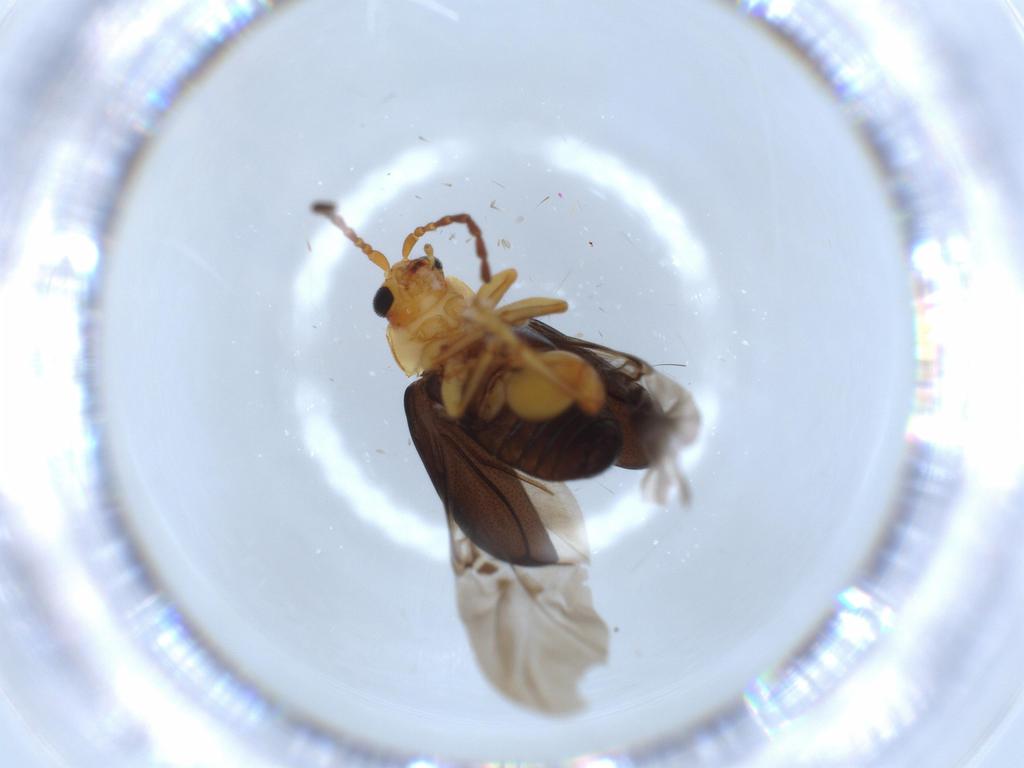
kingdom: Animalia
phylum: Arthropoda
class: Insecta
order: Coleoptera
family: Chrysomelidae
